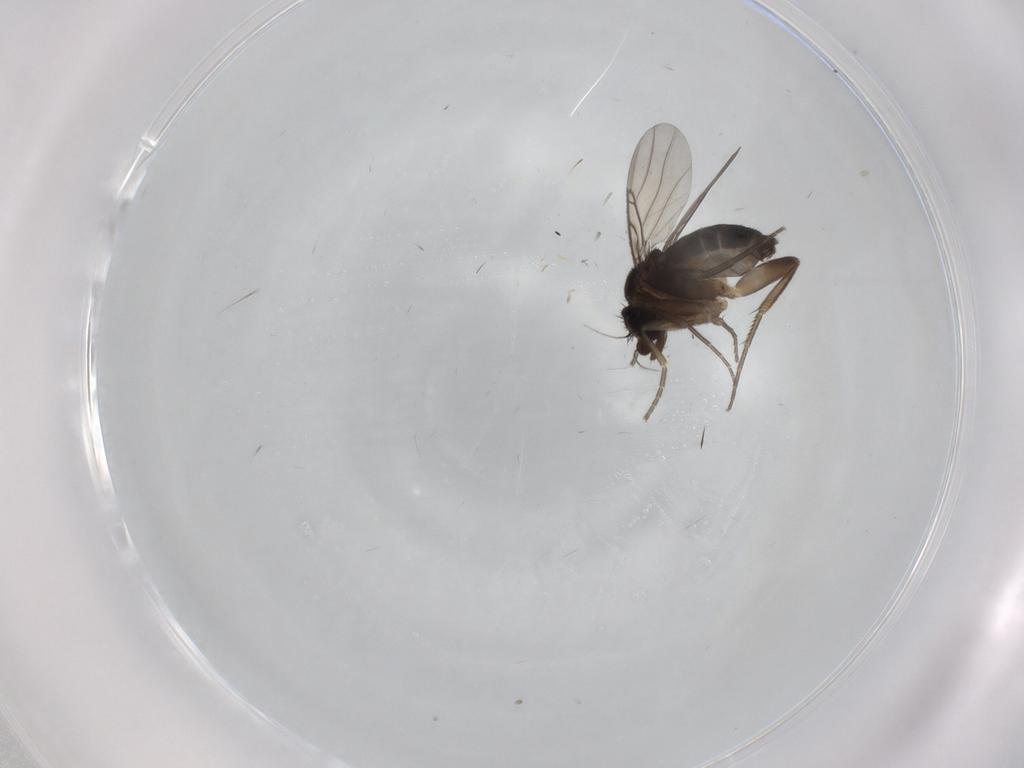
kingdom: Animalia
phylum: Arthropoda
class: Insecta
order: Diptera
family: Phoridae
